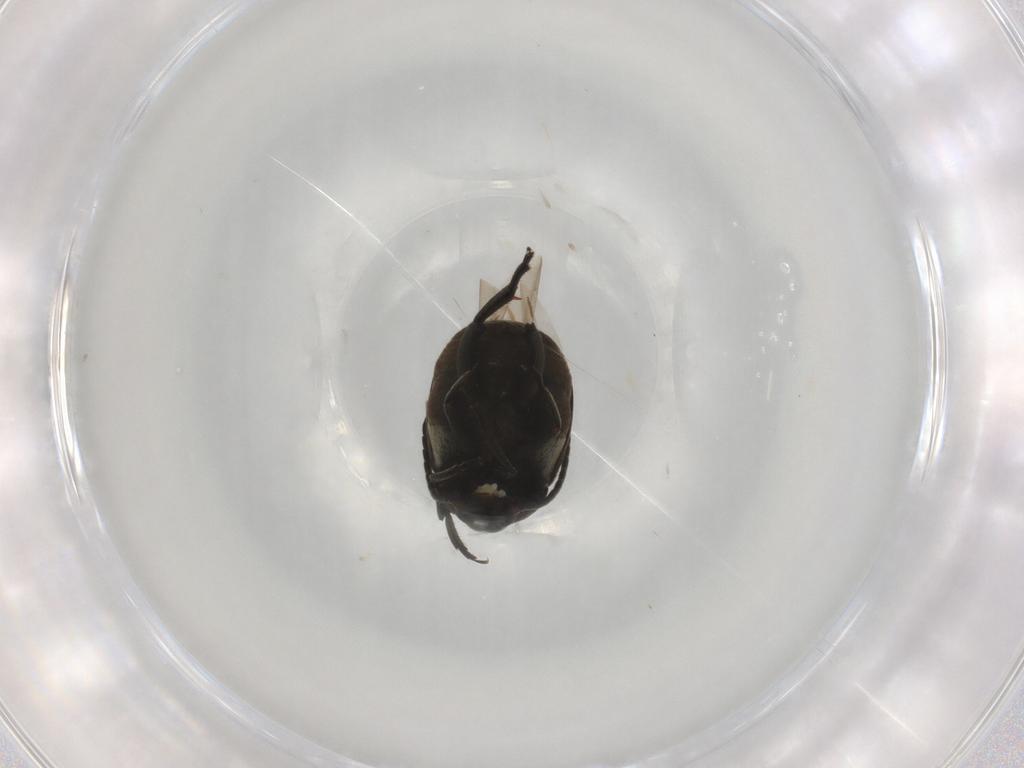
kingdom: Animalia
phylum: Arthropoda
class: Insecta
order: Coleoptera
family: Chrysomelidae
